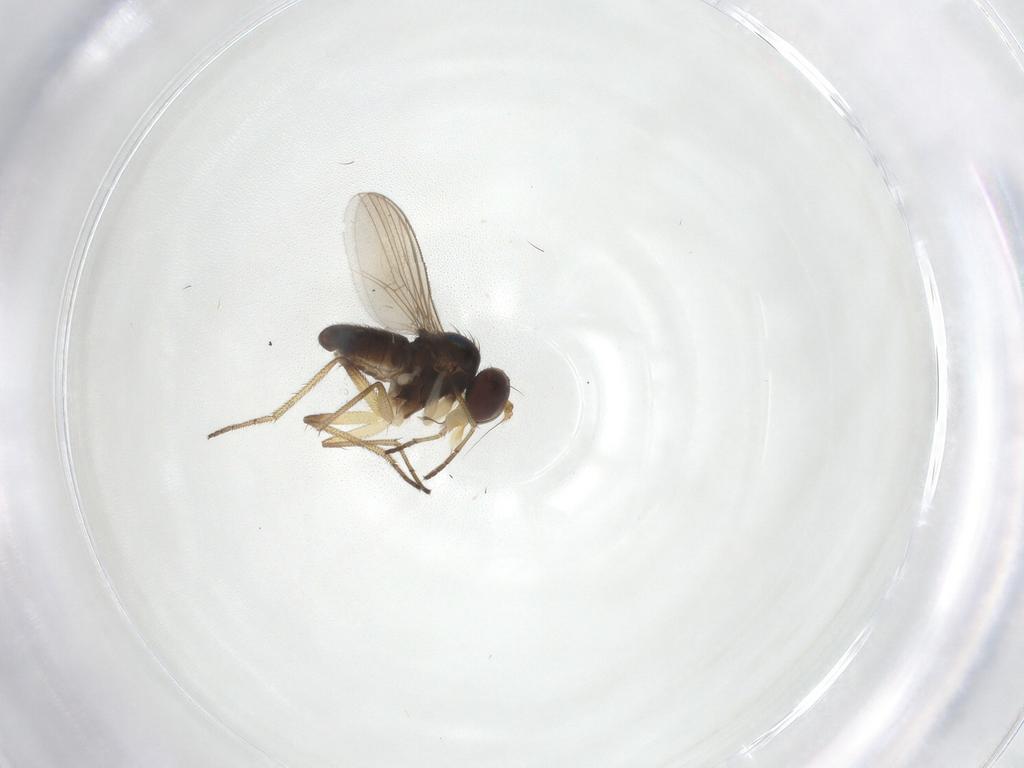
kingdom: Animalia
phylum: Arthropoda
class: Insecta
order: Diptera
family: Dolichopodidae
